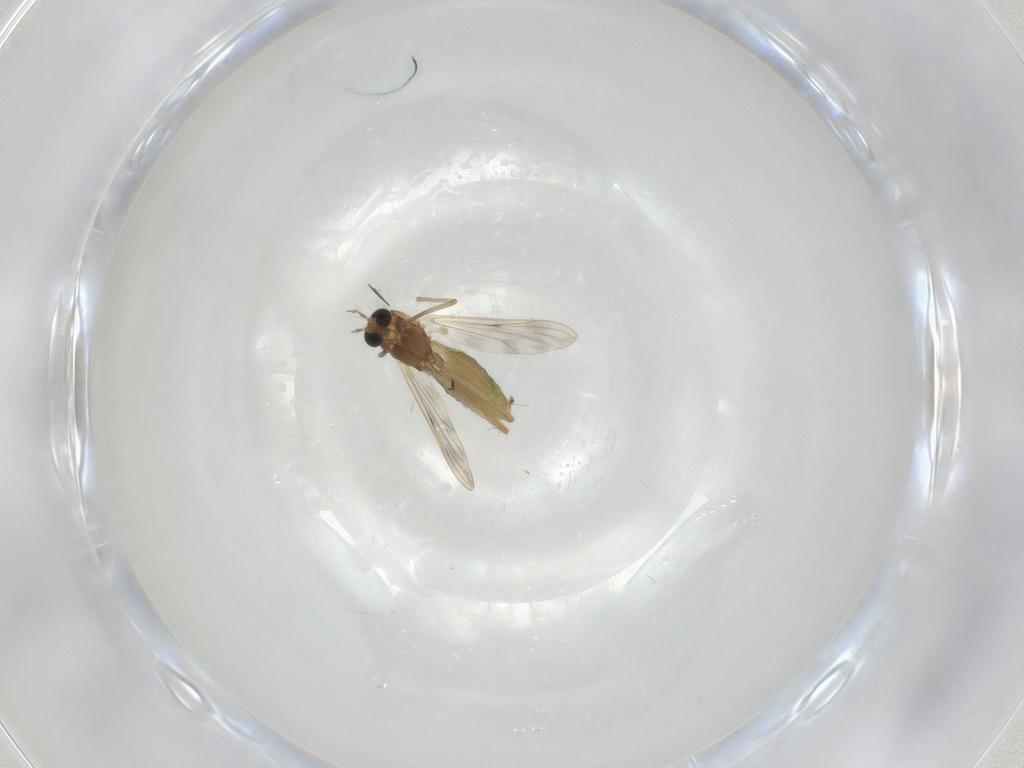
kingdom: Animalia
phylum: Arthropoda
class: Insecta
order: Diptera
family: Chironomidae
